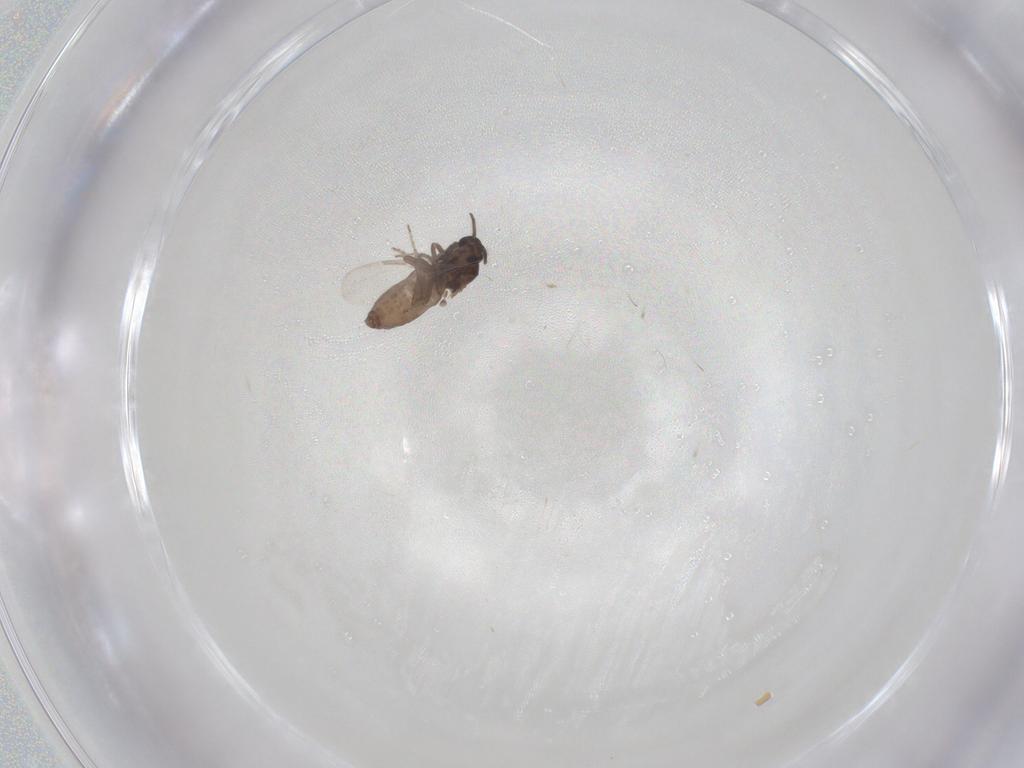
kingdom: Animalia
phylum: Arthropoda
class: Insecta
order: Diptera
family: Ceratopogonidae
